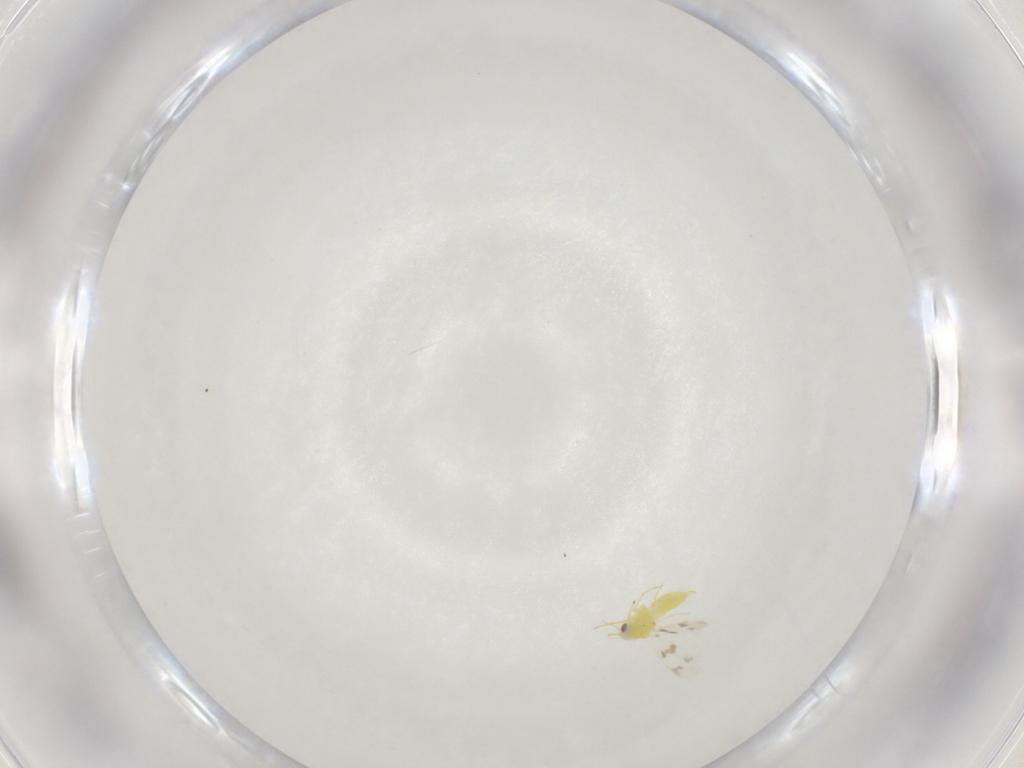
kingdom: Animalia
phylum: Arthropoda
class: Insecta
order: Hemiptera
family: Aleyrodidae
